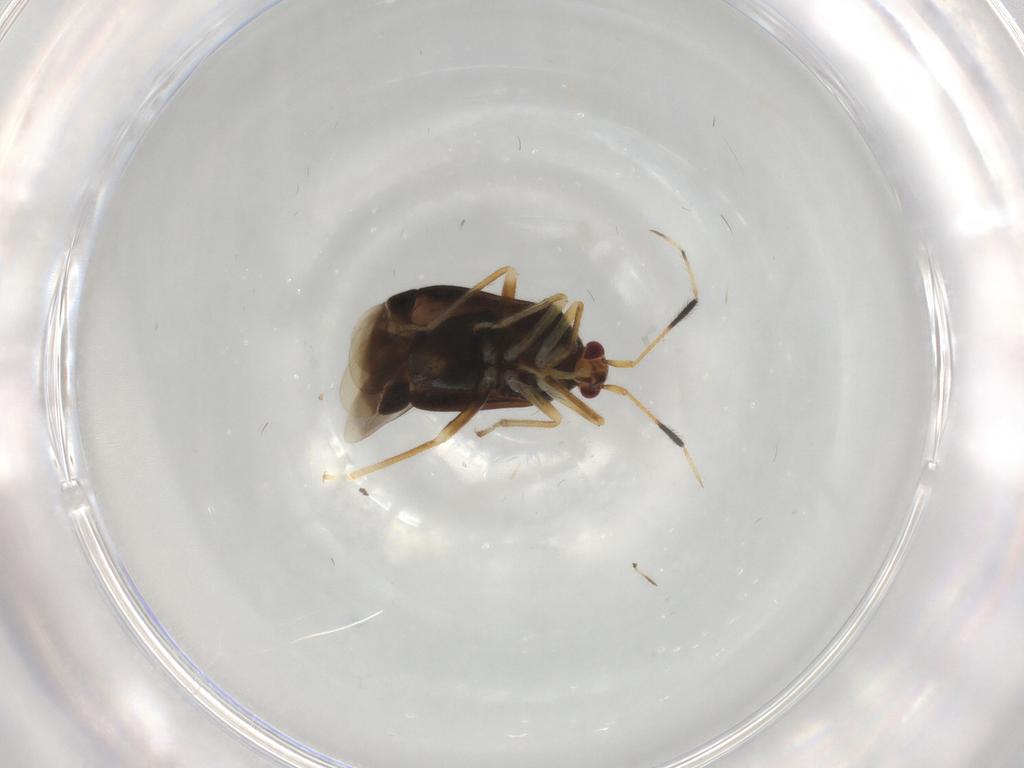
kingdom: Animalia
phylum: Arthropoda
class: Insecta
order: Hemiptera
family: Miridae
